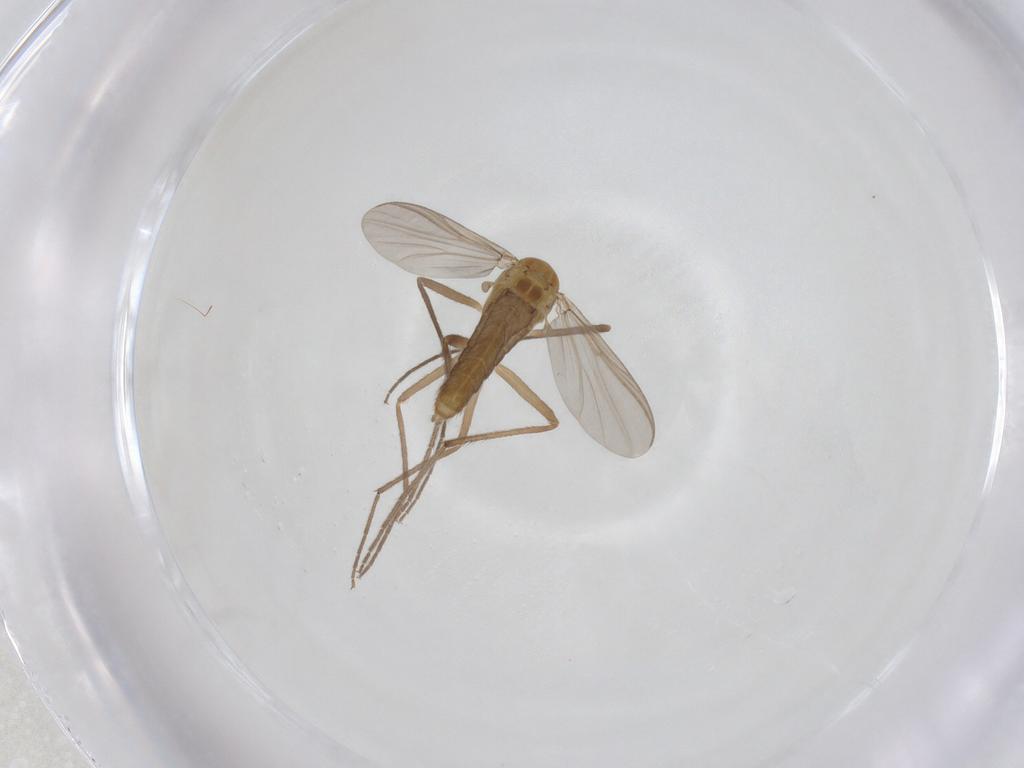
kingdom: Animalia
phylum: Arthropoda
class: Insecta
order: Diptera
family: Chironomidae
